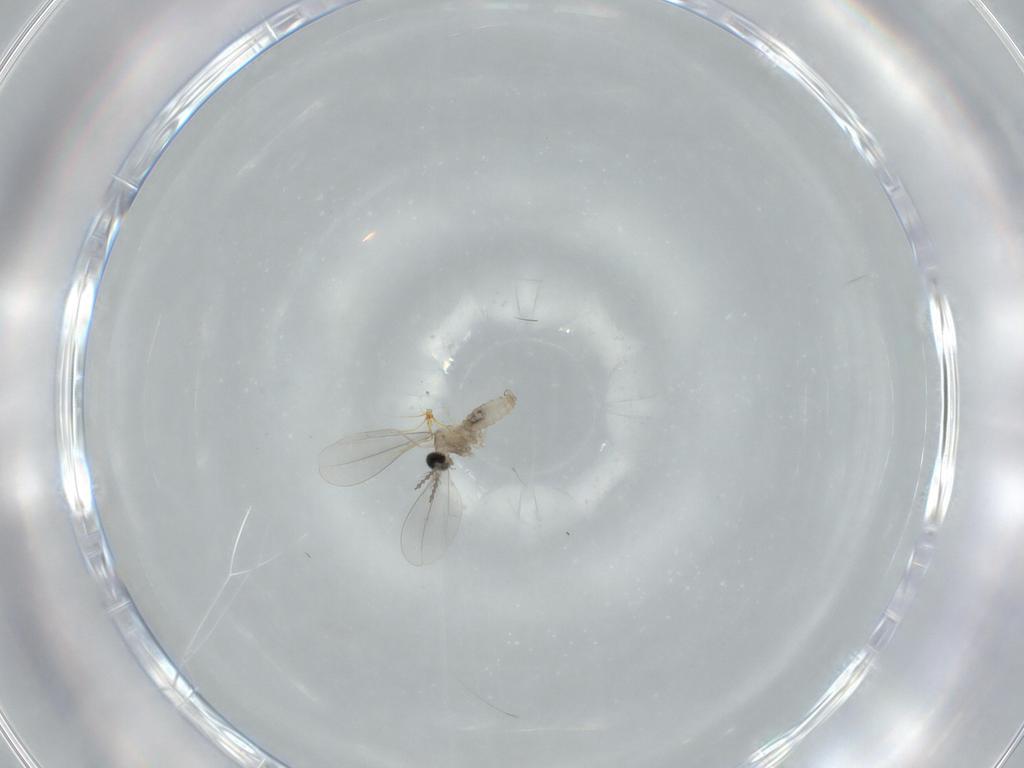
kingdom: Animalia
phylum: Arthropoda
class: Insecta
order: Diptera
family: Cecidomyiidae
